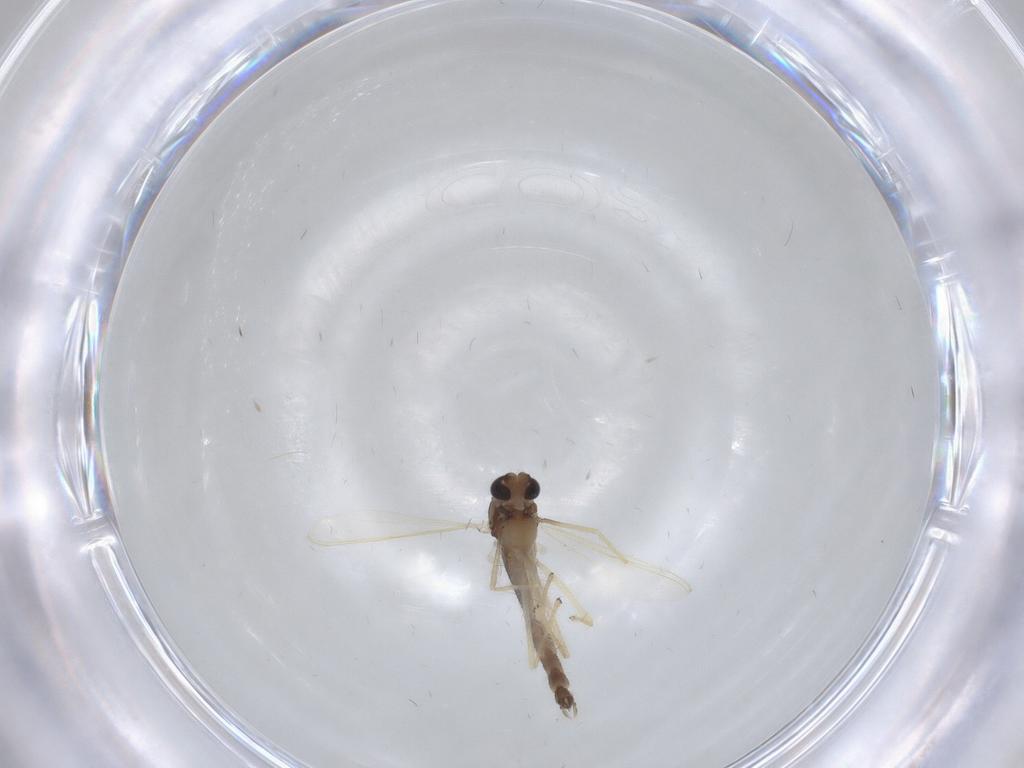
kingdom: Animalia
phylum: Arthropoda
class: Insecta
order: Diptera
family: Chironomidae
